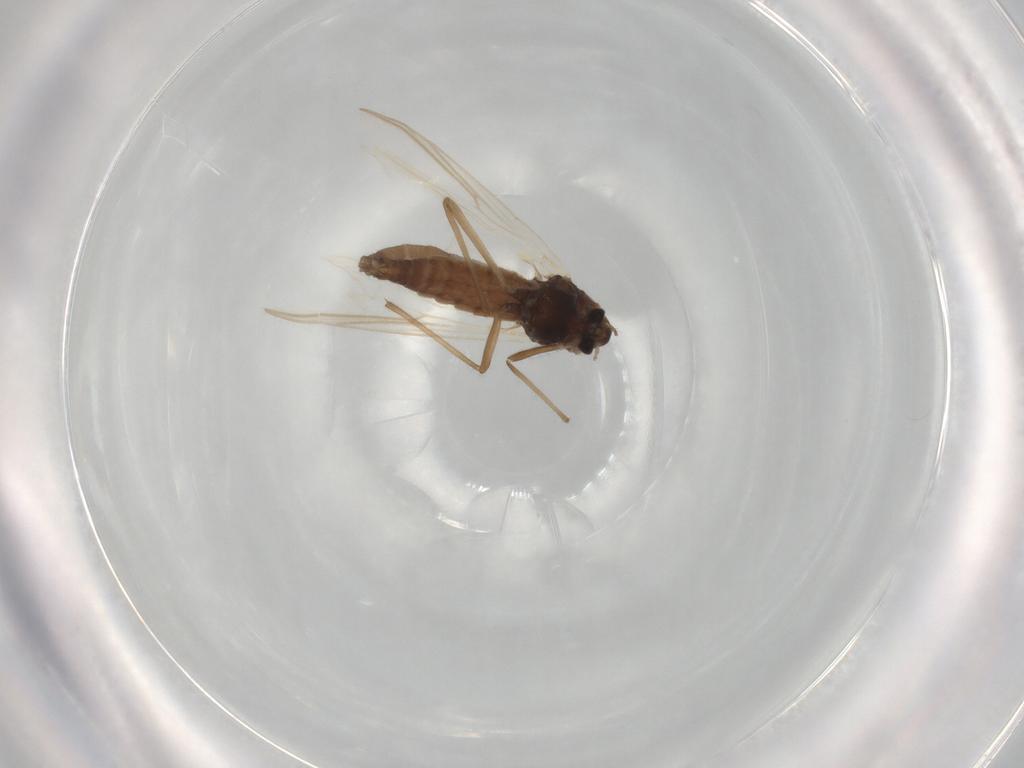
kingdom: Animalia
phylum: Arthropoda
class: Insecta
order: Diptera
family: Chironomidae
